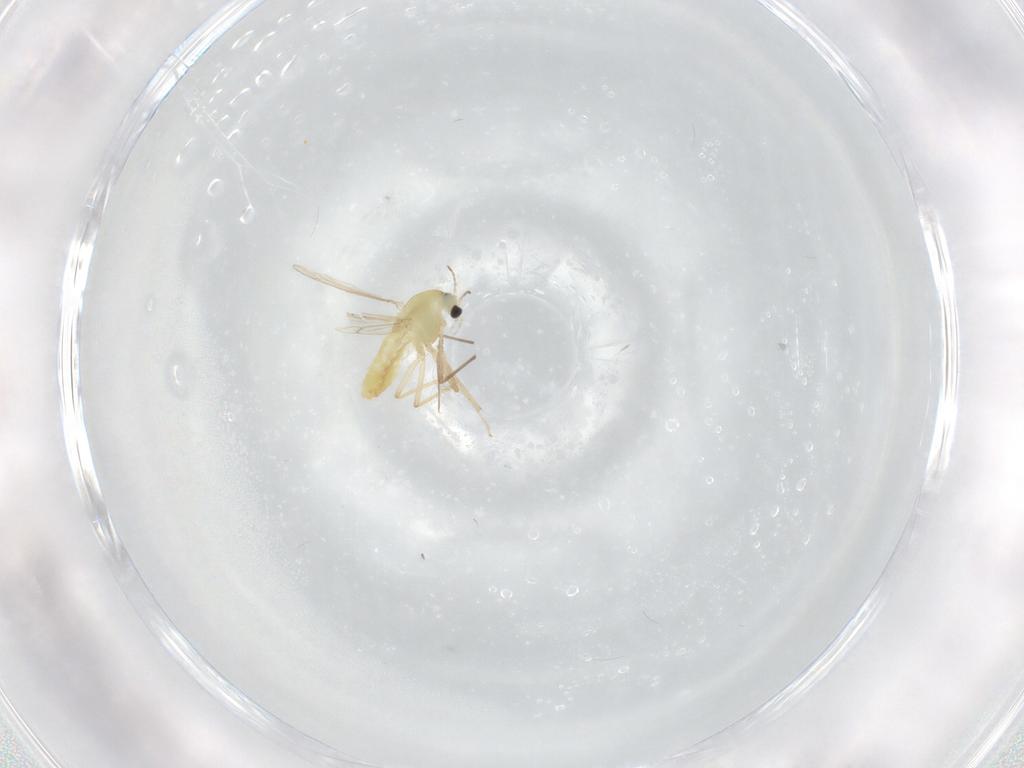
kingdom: Animalia
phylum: Arthropoda
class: Insecta
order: Diptera
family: Chironomidae
